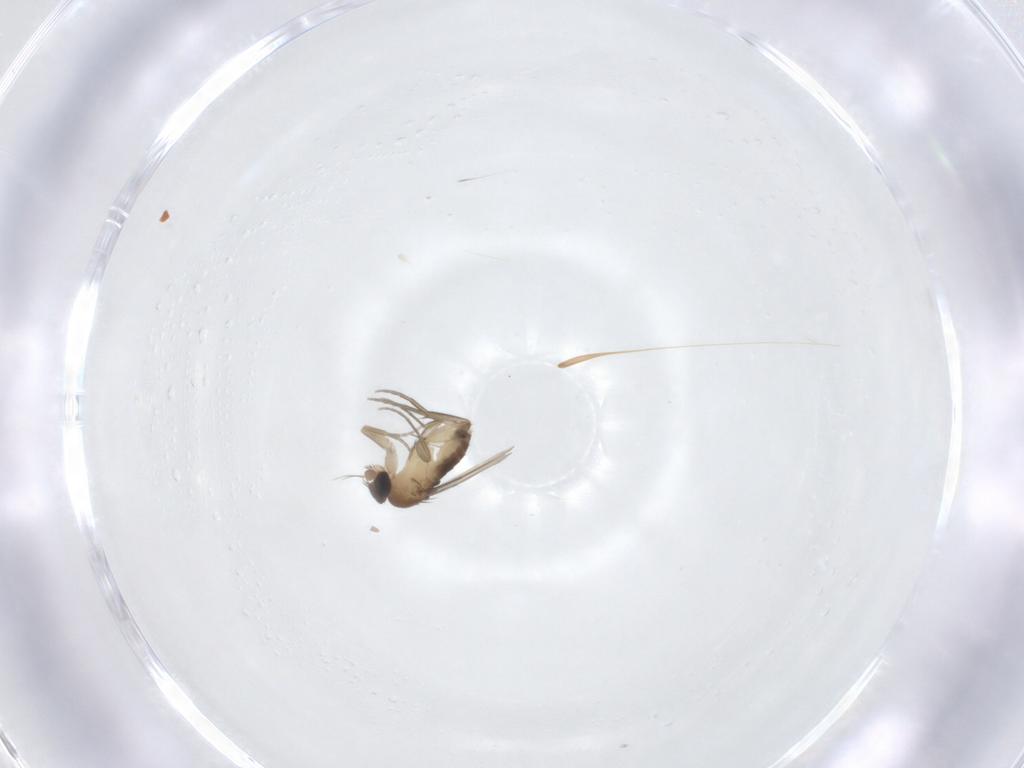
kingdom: Animalia
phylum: Arthropoda
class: Insecta
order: Diptera
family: Phoridae
